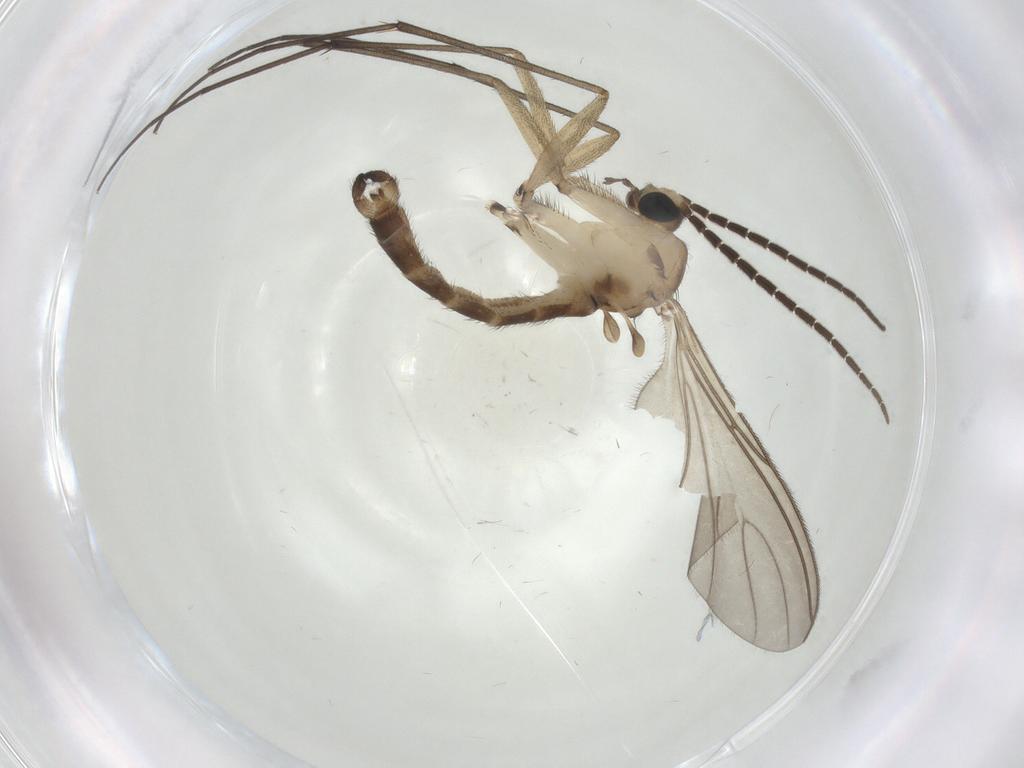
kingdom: Animalia
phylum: Arthropoda
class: Insecta
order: Diptera
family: Sciaridae
